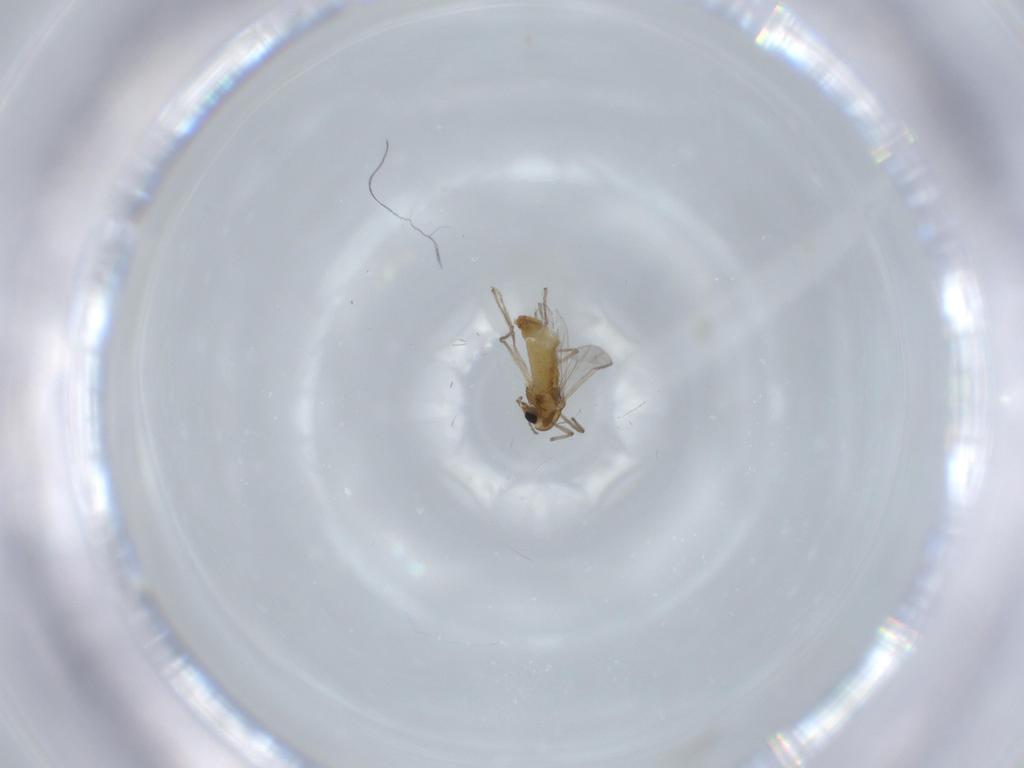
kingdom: Animalia
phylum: Arthropoda
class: Insecta
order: Diptera
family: Chironomidae
